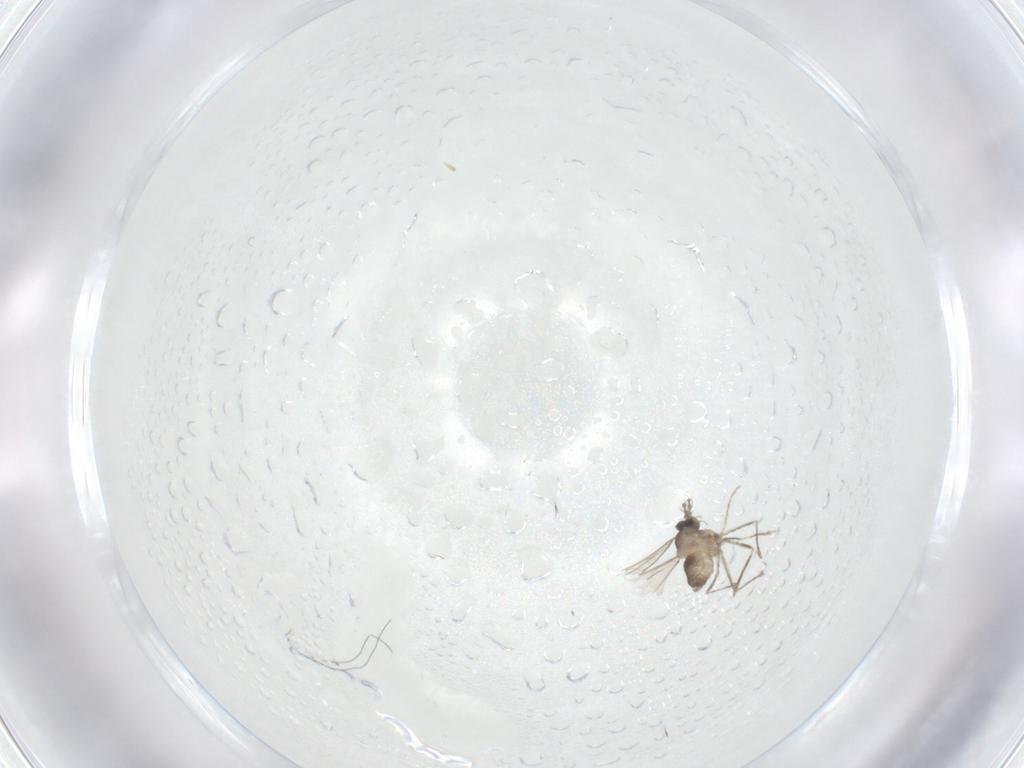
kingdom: Animalia
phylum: Arthropoda
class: Insecta
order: Diptera
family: Cecidomyiidae
